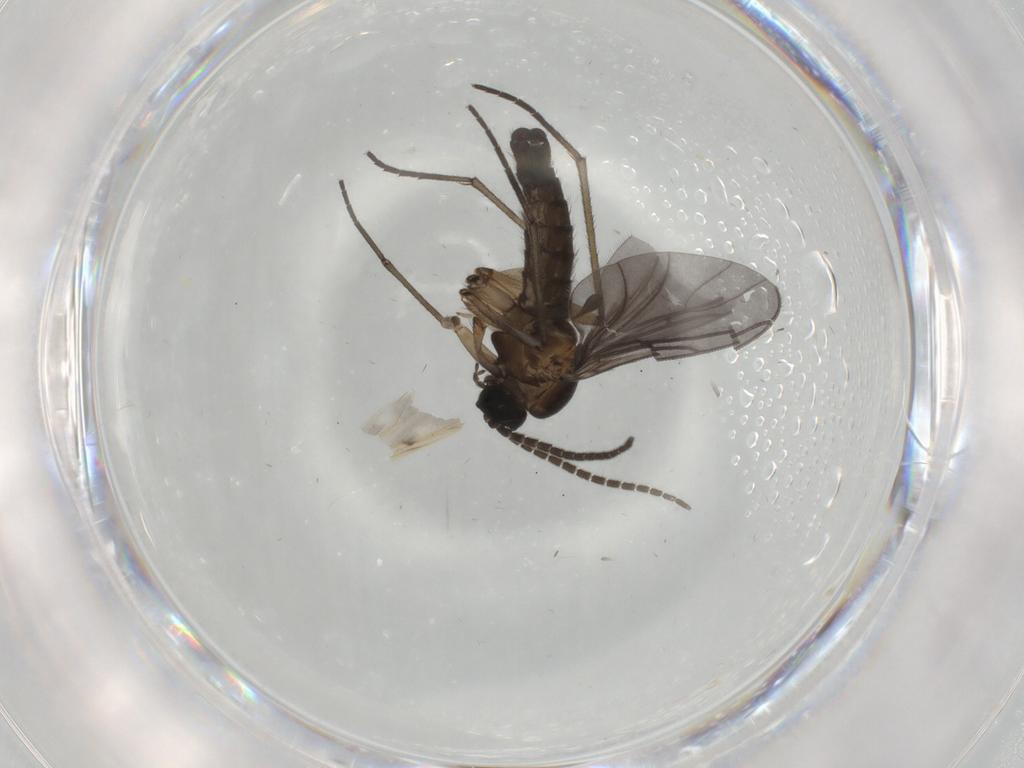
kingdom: Animalia
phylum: Arthropoda
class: Insecta
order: Diptera
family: Sciaridae
